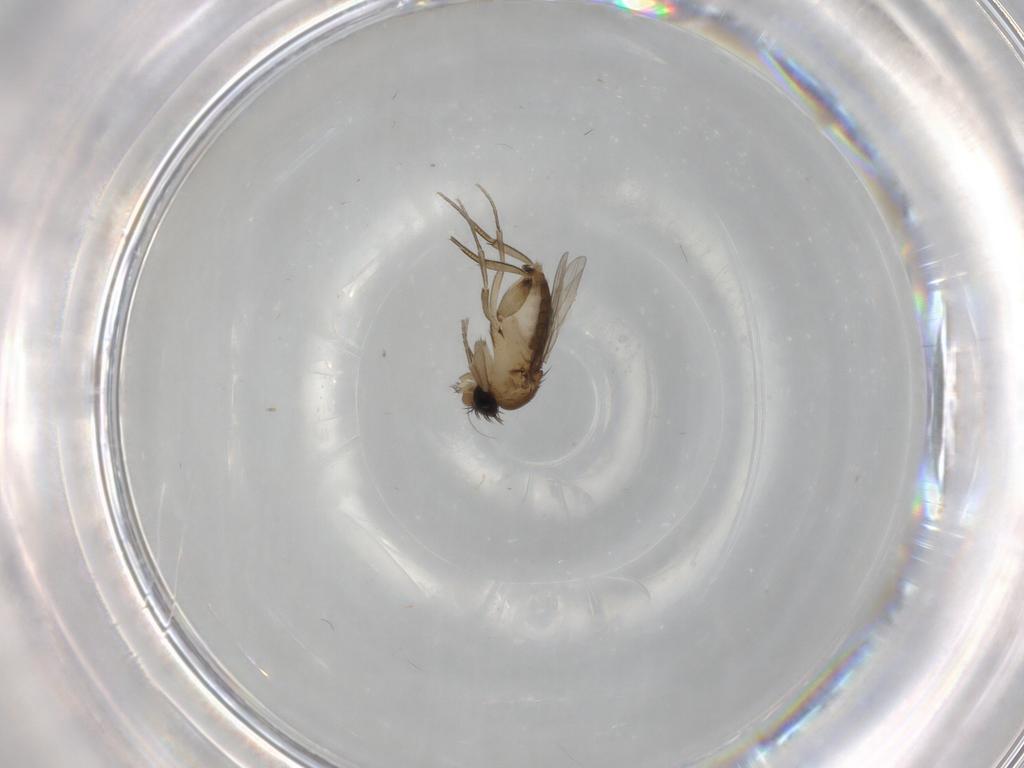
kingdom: Animalia
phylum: Arthropoda
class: Insecta
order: Diptera
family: Phoridae
